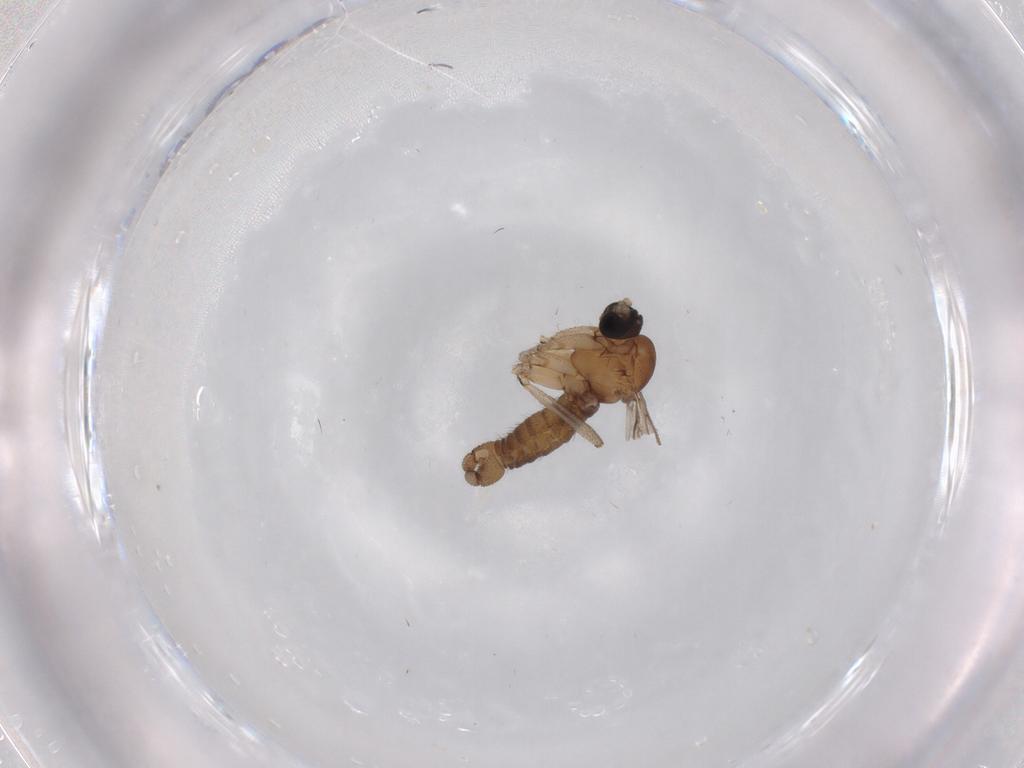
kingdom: Animalia
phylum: Arthropoda
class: Insecta
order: Diptera
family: Sciaridae
